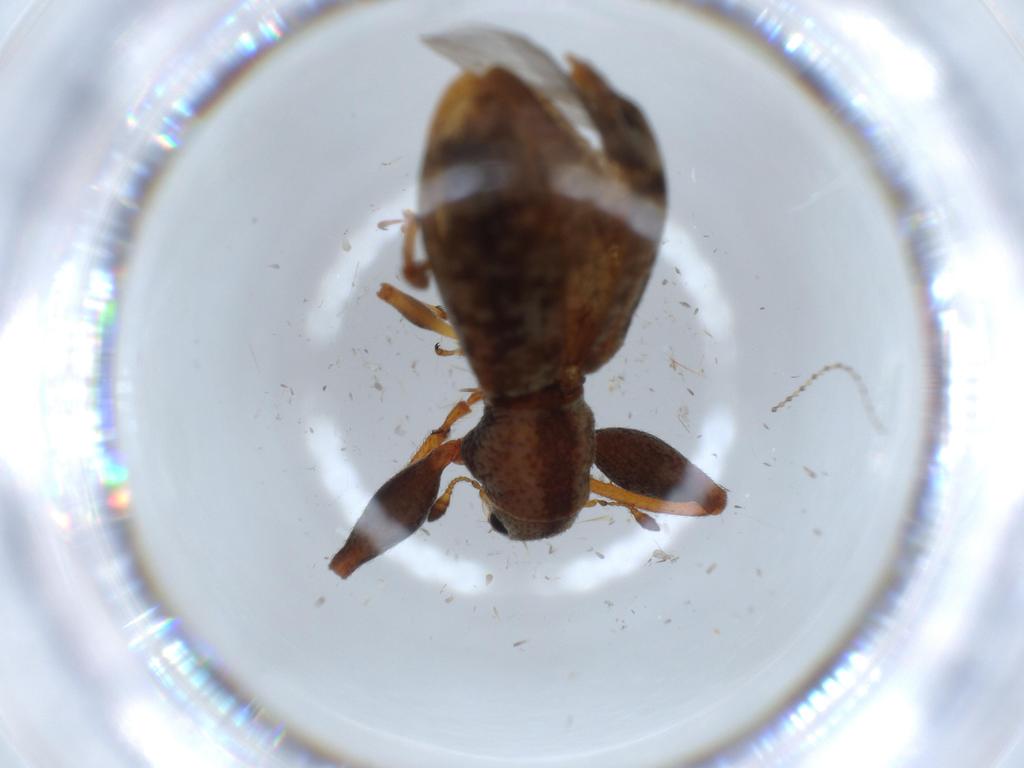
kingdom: Animalia
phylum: Arthropoda
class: Insecta
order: Coleoptera
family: Curculionidae
